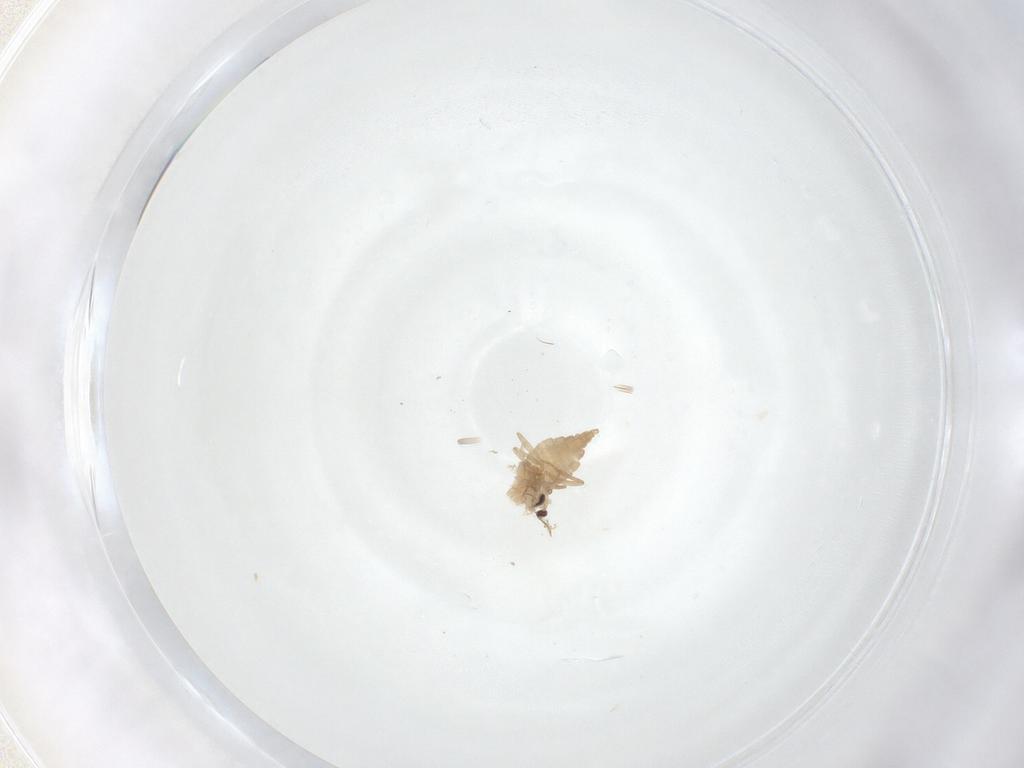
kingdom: Animalia
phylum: Arthropoda
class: Insecta
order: Diptera
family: Cecidomyiidae
